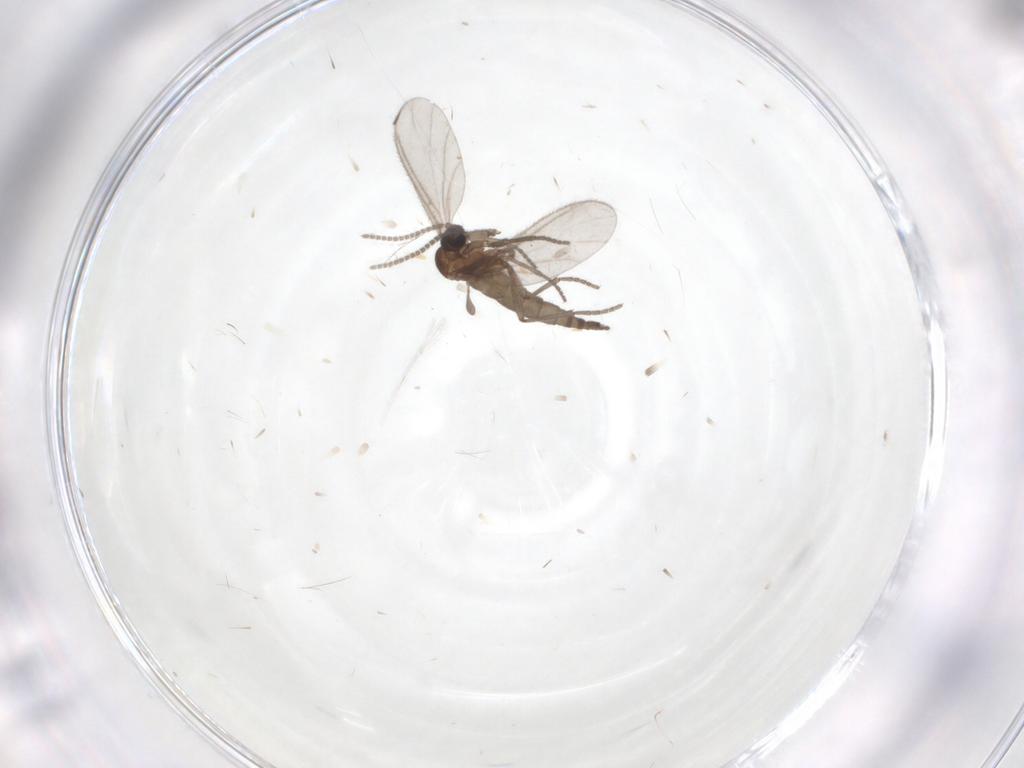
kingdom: Animalia
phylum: Arthropoda
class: Insecta
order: Diptera
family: Sciaridae
